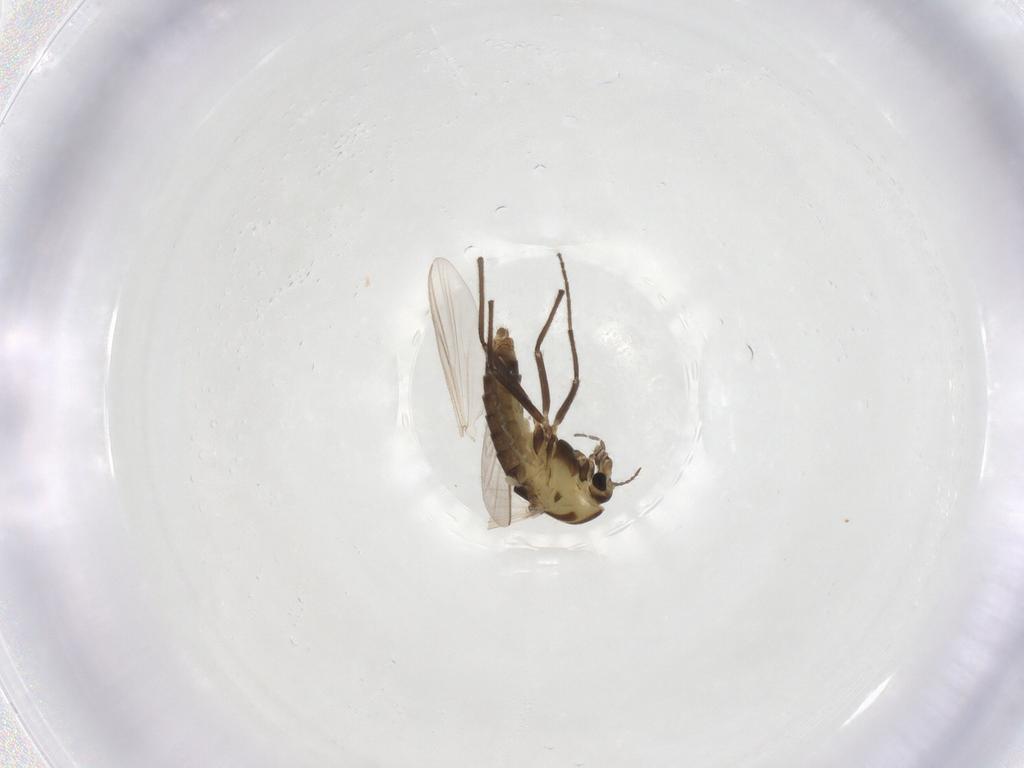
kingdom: Animalia
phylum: Arthropoda
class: Insecta
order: Diptera
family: Chironomidae
